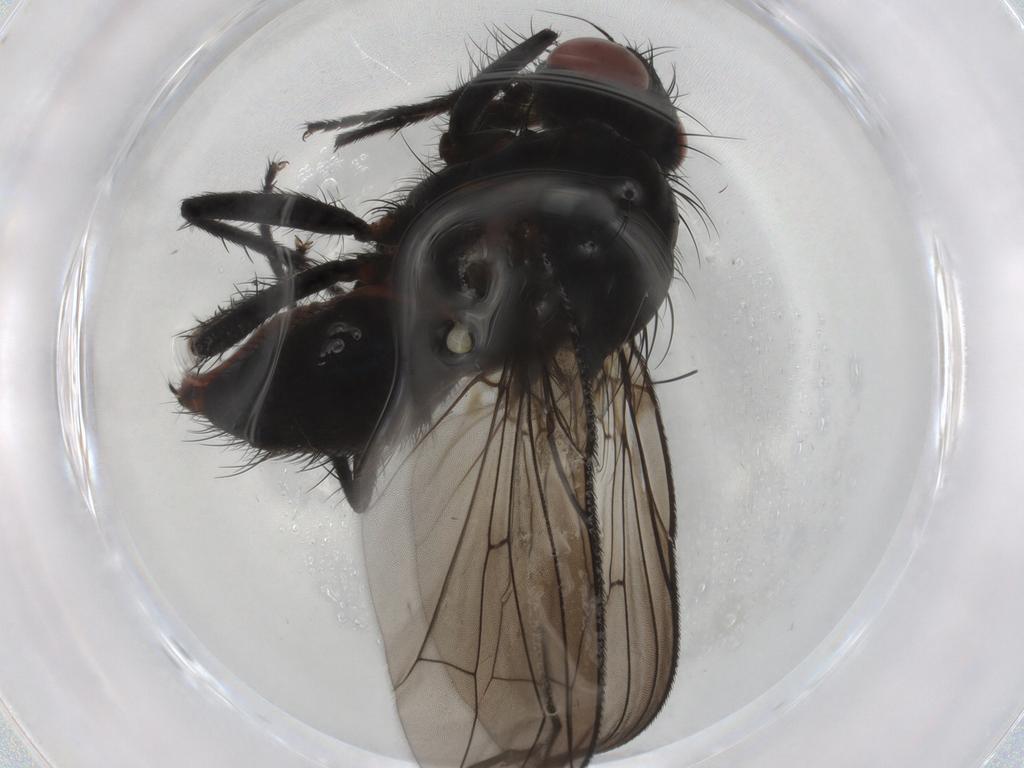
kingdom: Animalia
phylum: Arthropoda
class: Insecta
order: Diptera
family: Anthomyiidae
